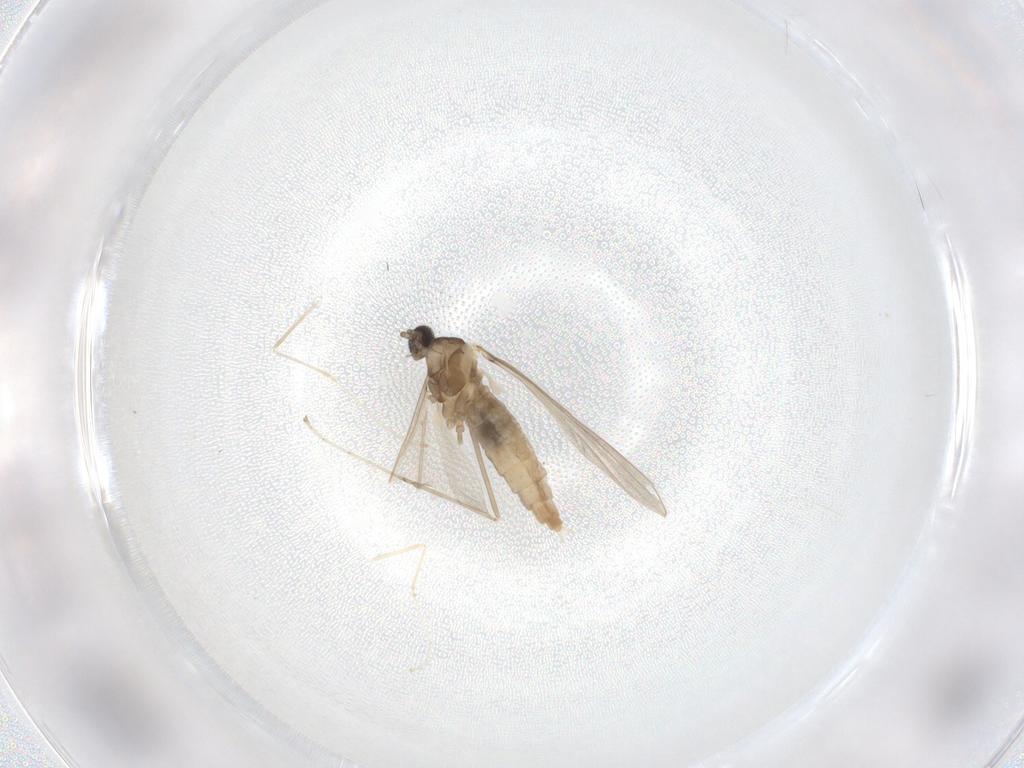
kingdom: Animalia
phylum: Arthropoda
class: Insecta
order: Diptera
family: Cecidomyiidae
